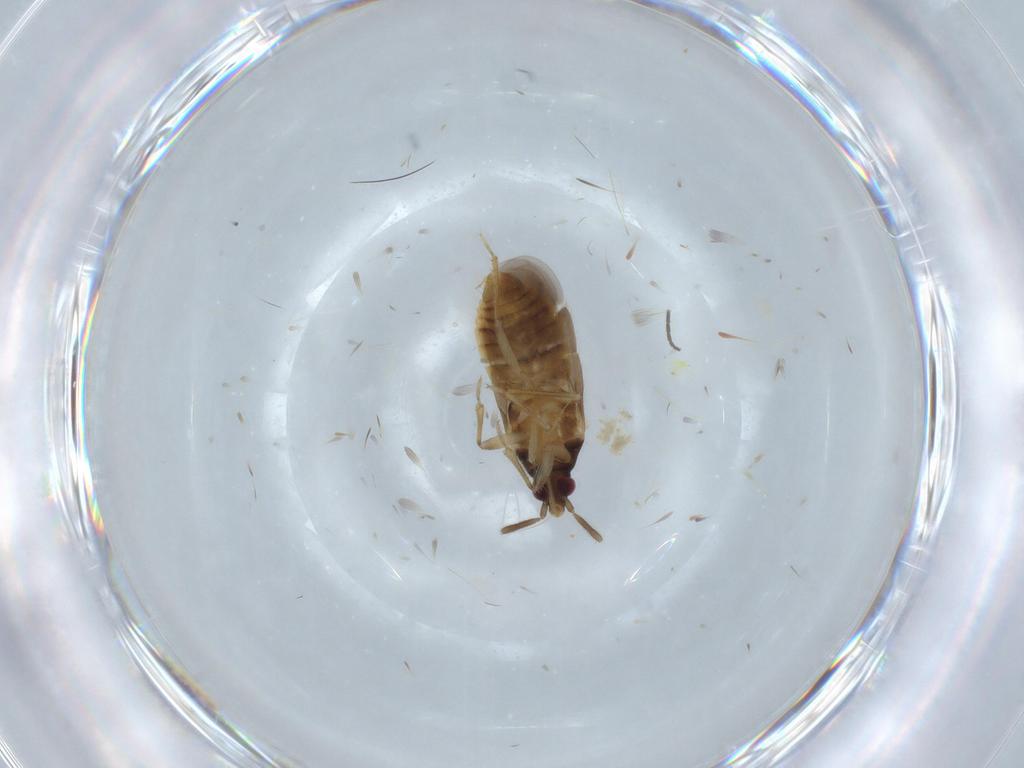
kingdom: Animalia
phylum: Arthropoda
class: Insecta
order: Hemiptera
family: Lasiochilidae
